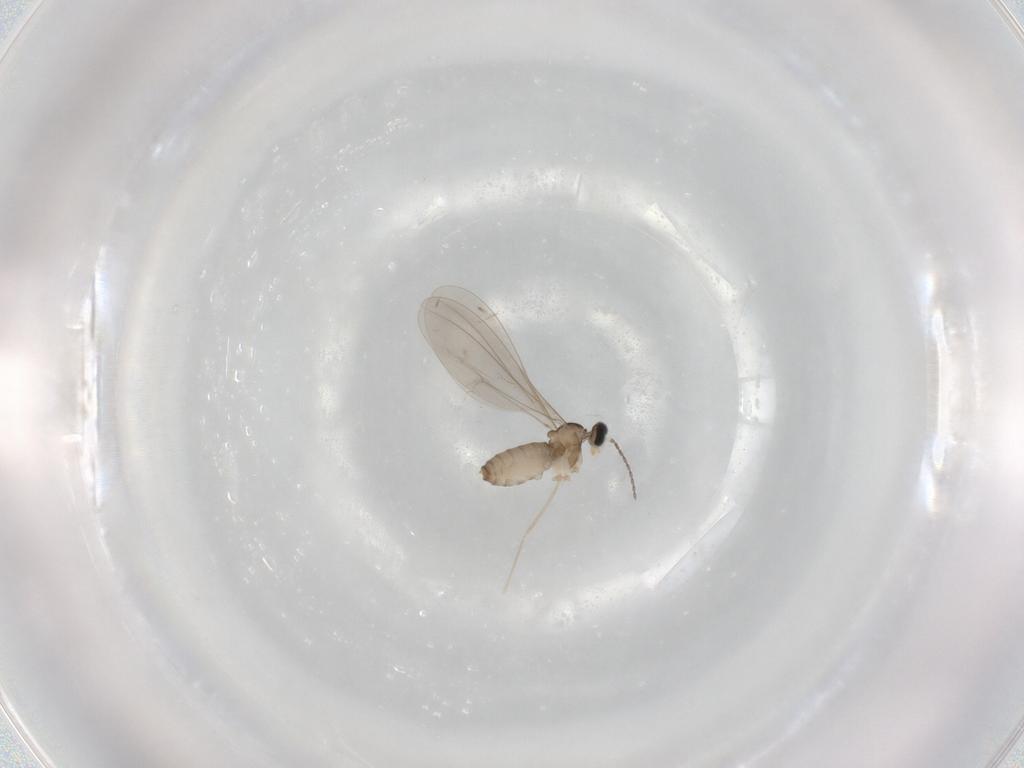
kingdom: Animalia
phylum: Arthropoda
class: Insecta
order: Diptera
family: Cecidomyiidae
